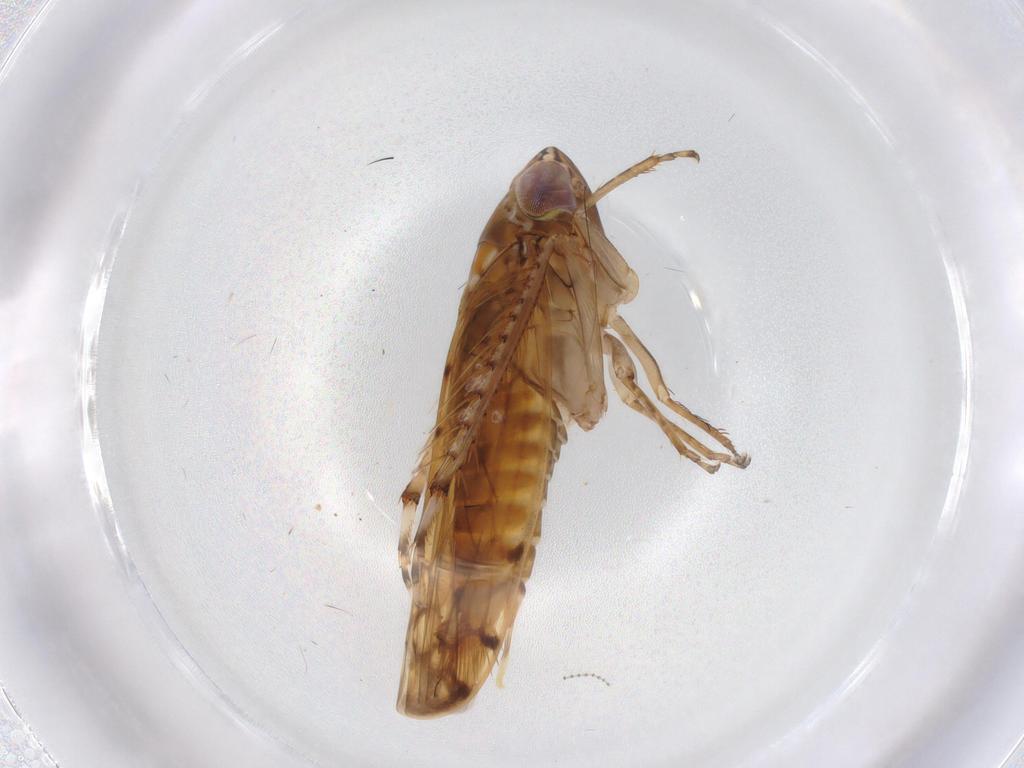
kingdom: Animalia
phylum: Arthropoda
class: Insecta
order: Hemiptera
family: Cicadellidae
